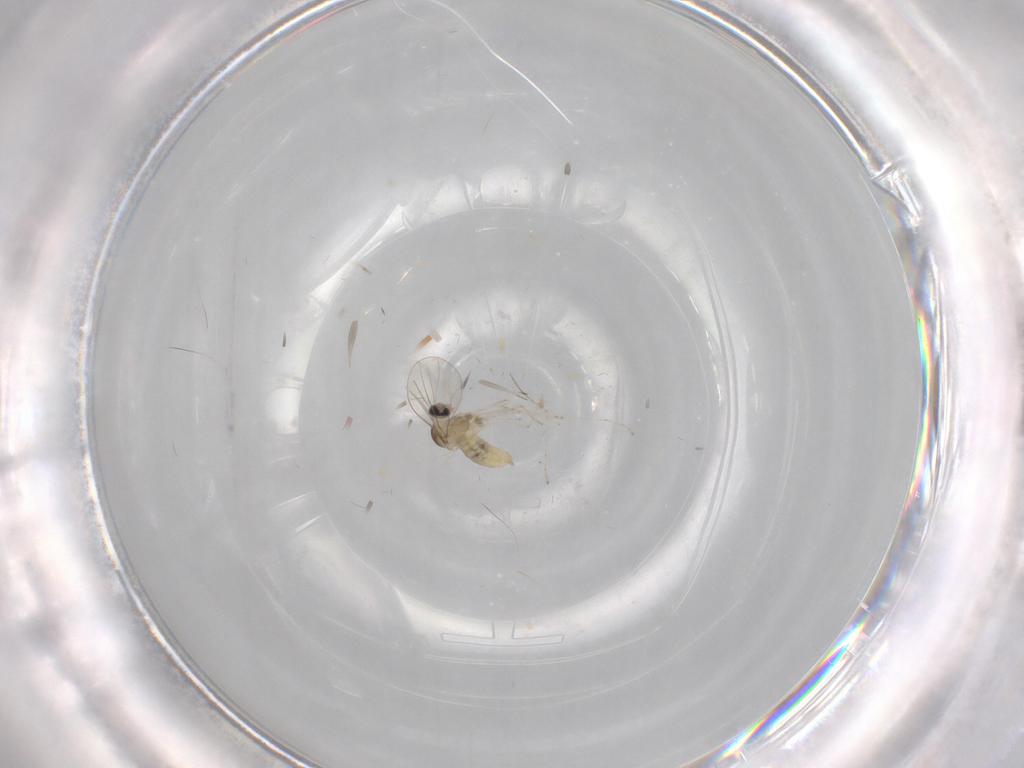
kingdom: Animalia
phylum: Arthropoda
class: Insecta
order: Diptera
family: Cecidomyiidae
